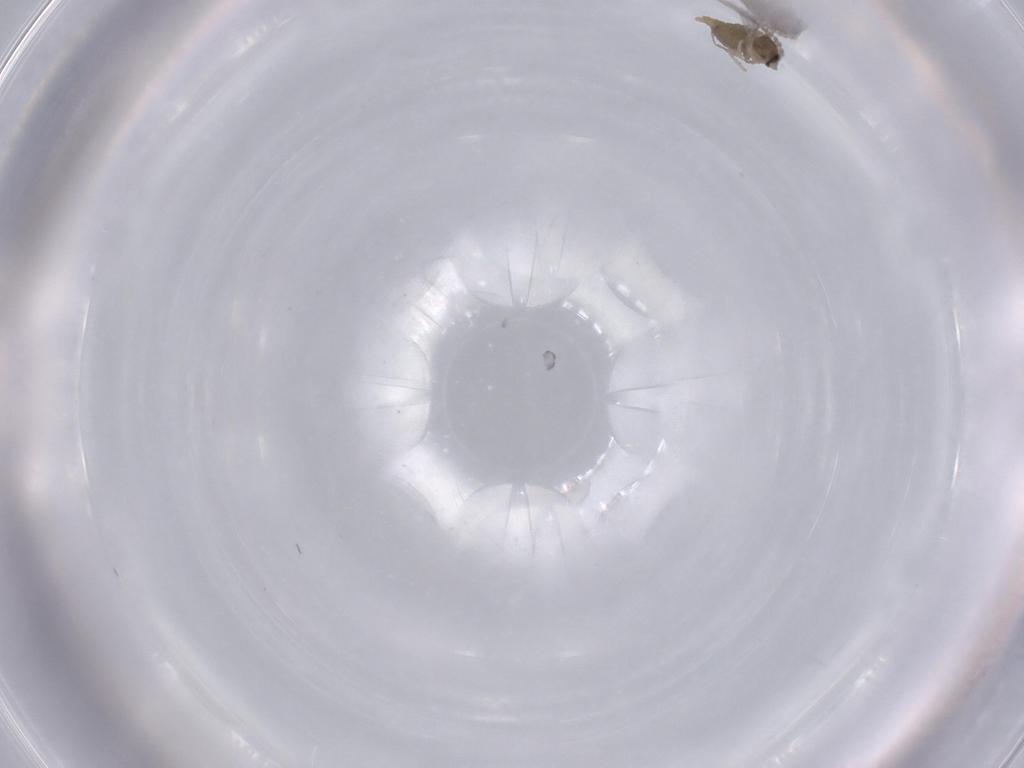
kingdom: Animalia
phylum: Arthropoda
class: Insecta
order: Diptera
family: Cecidomyiidae
